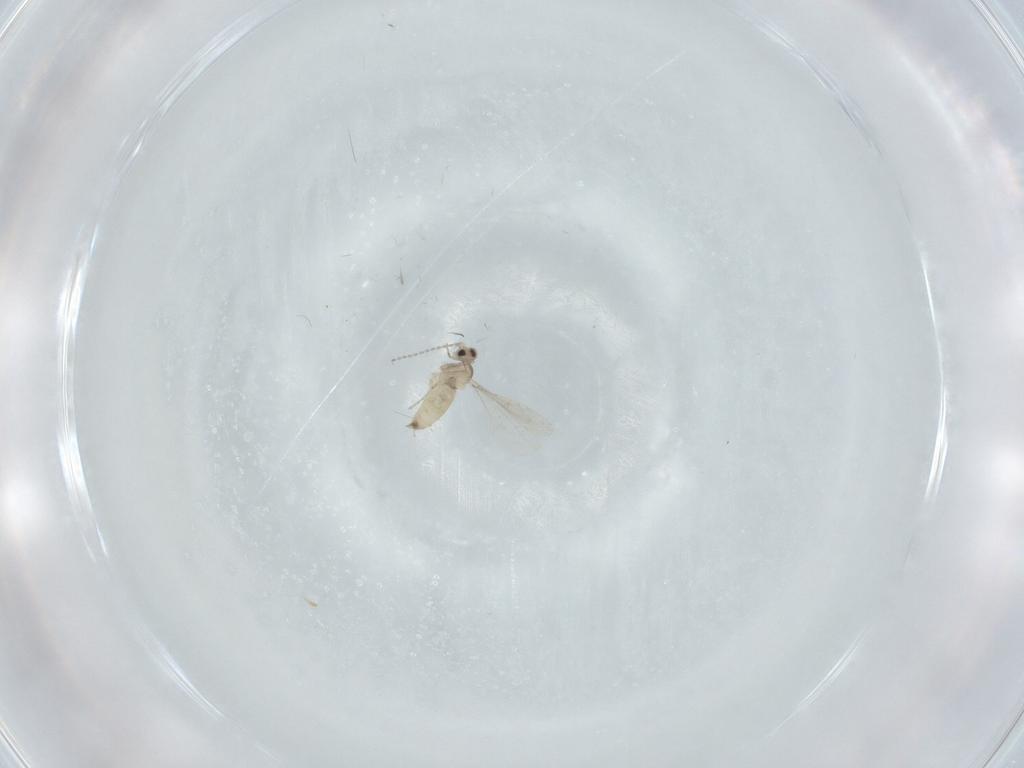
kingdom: Animalia
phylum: Arthropoda
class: Insecta
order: Diptera
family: Cecidomyiidae
